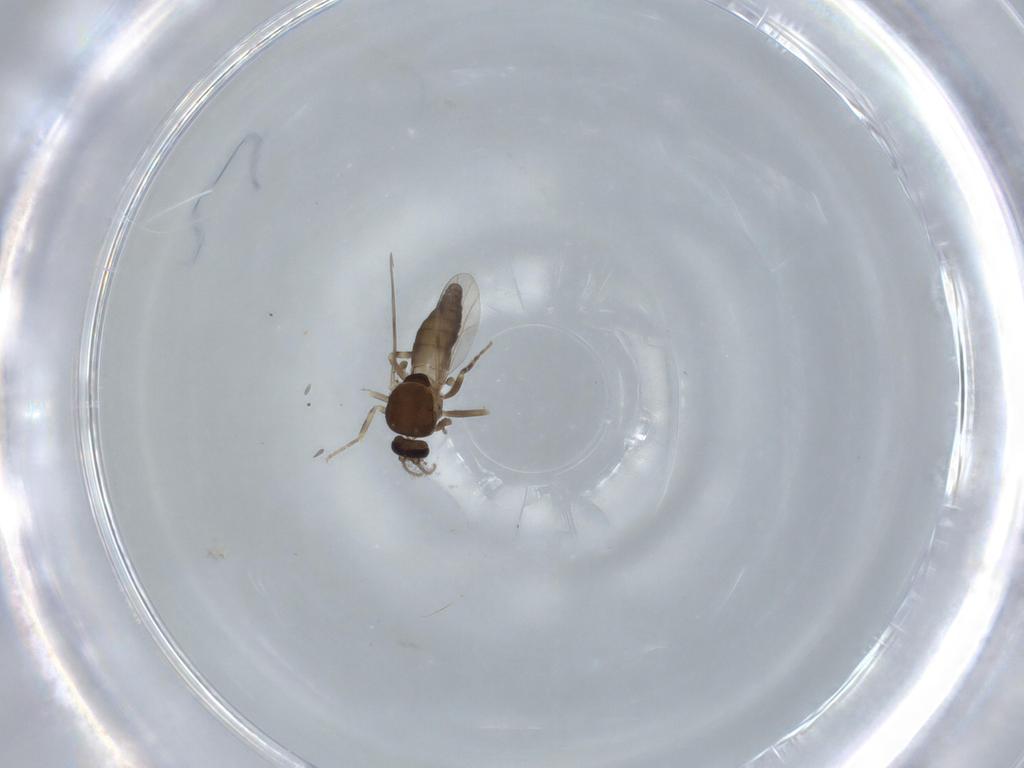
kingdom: Animalia
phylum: Arthropoda
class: Insecta
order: Diptera
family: Ceratopogonidae
